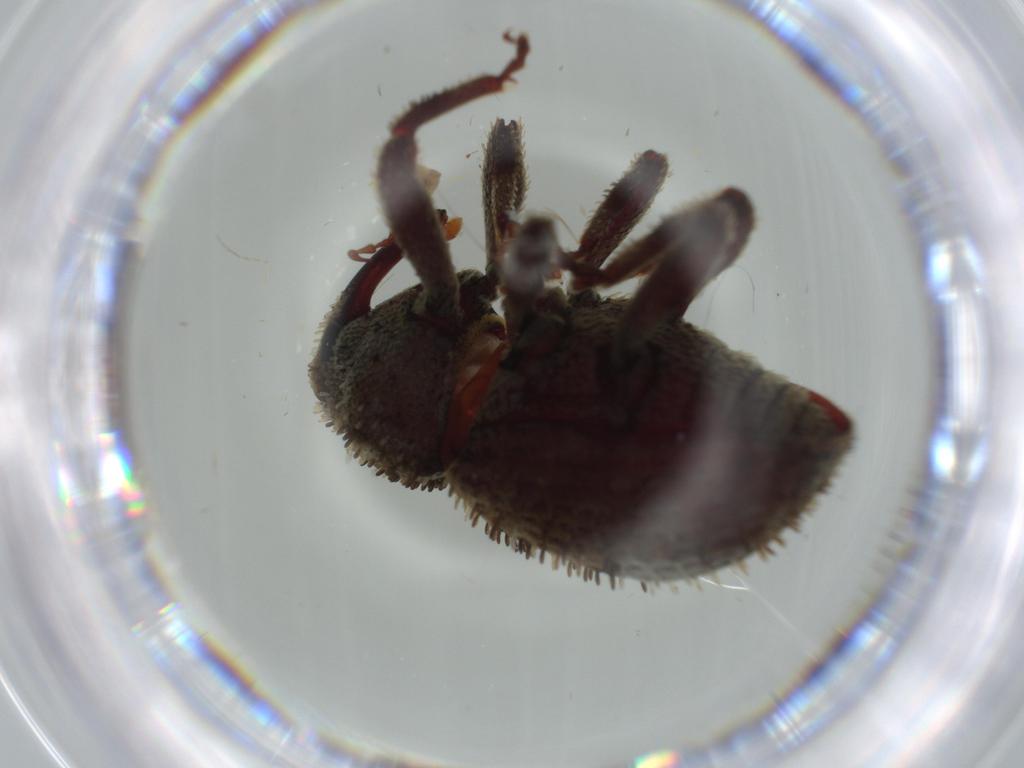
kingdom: Animalia
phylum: Arthropoda
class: Insecta
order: Coleoptera
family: Curculionidae
